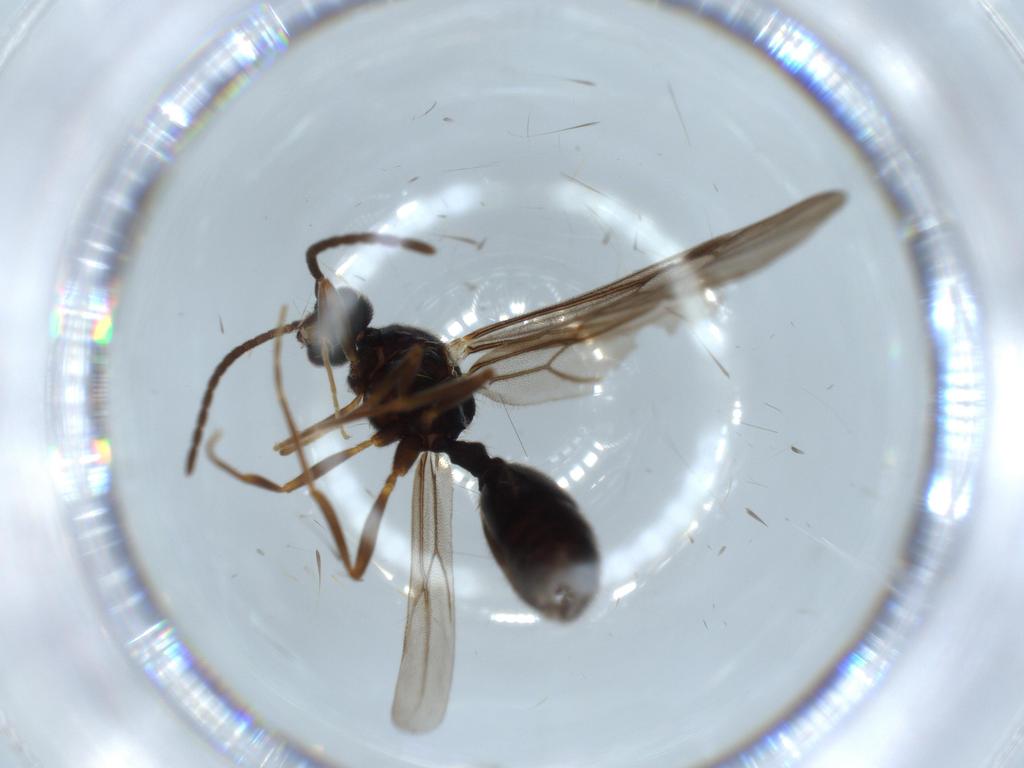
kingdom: Animalia
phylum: Arthropoda
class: Insecta
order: Hymenoptera
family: Formicidae
